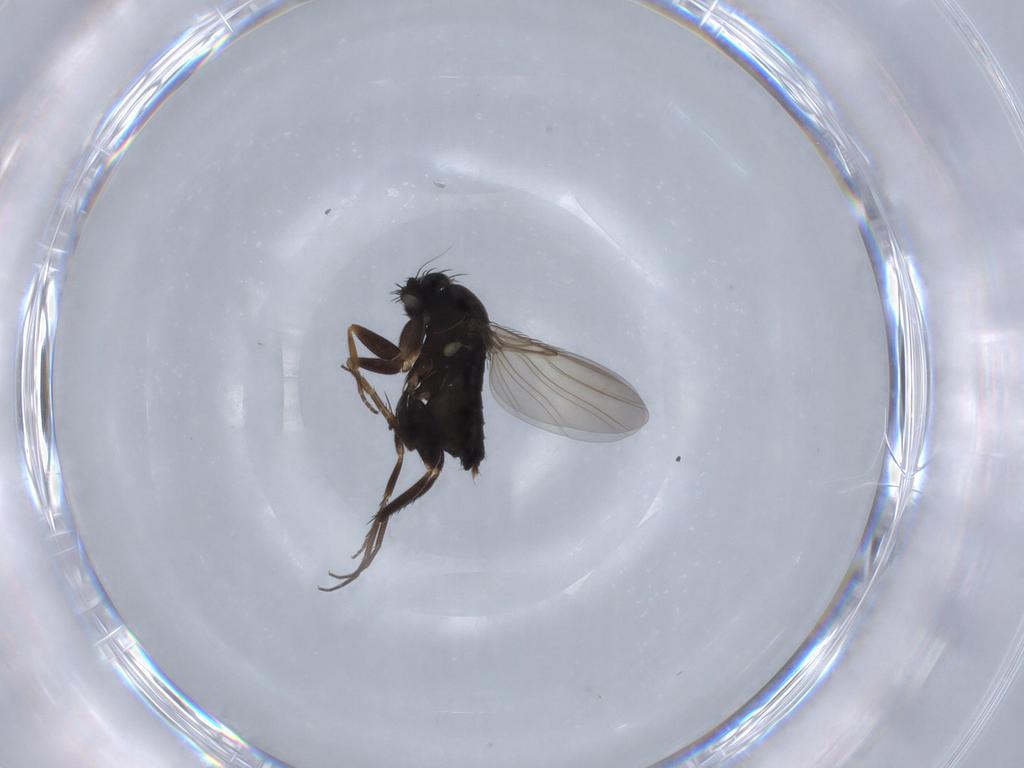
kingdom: Animalia
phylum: Arthropoda
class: Insecta
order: Diptera
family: Phoridae
